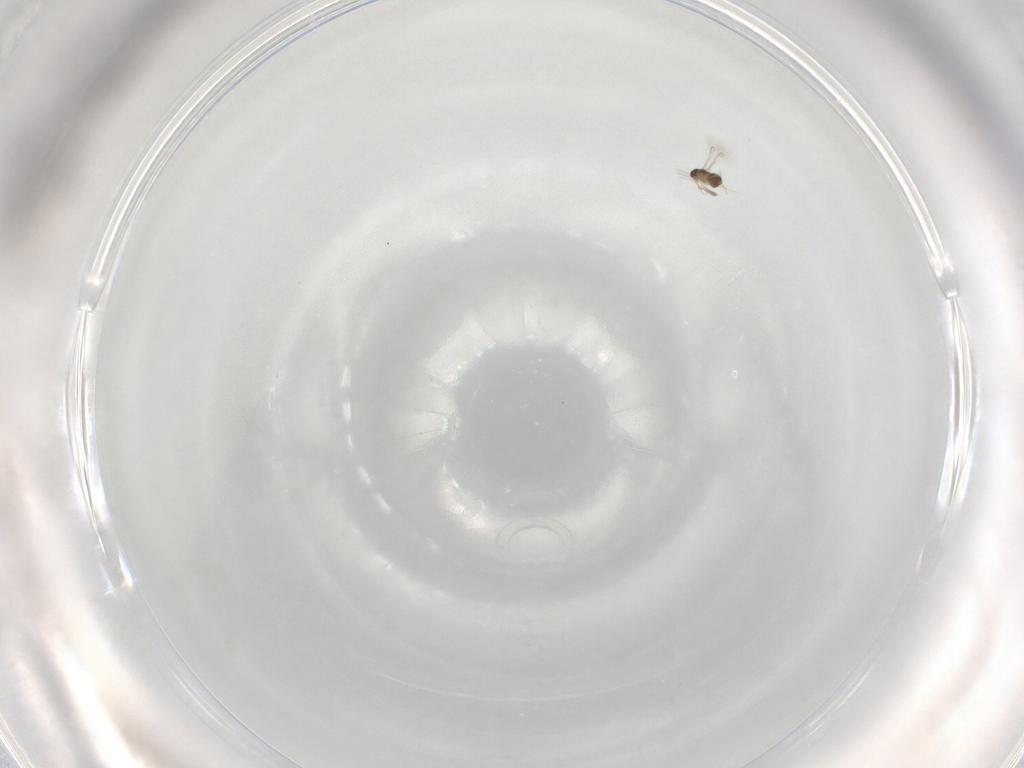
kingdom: Animalia
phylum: Arthropoda
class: Insecta
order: Hymenoptera
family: Mymaridae
